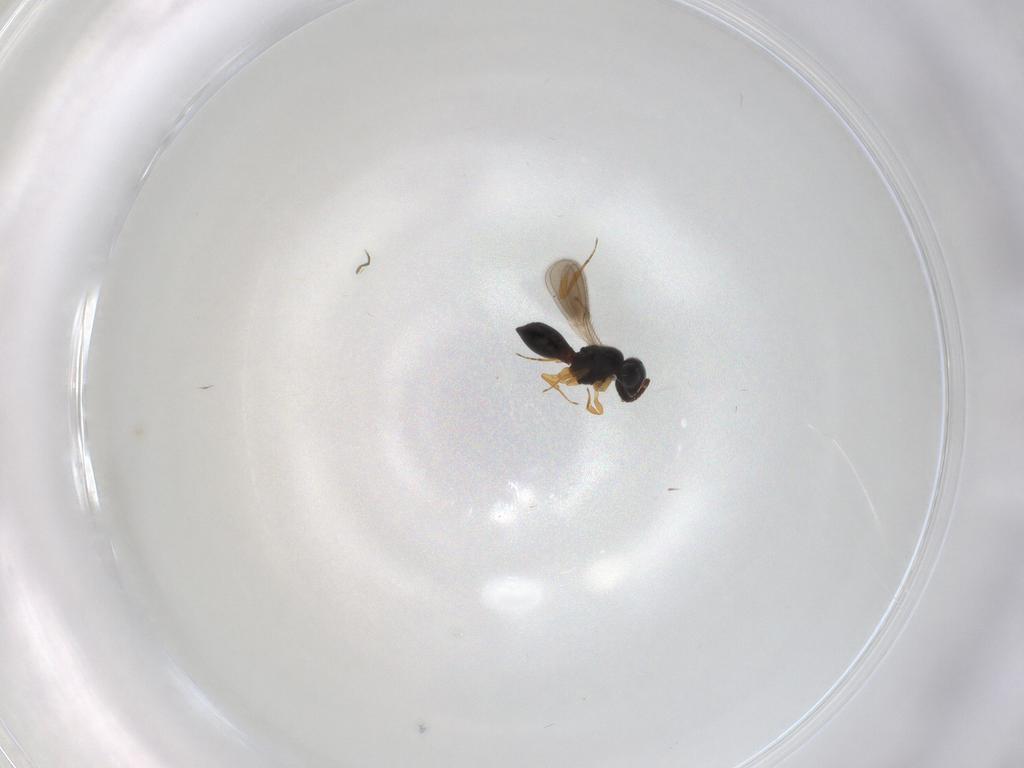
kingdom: Animalia
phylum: Arthropoda
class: Insecta
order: Hymenoptera
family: Scelionidae
